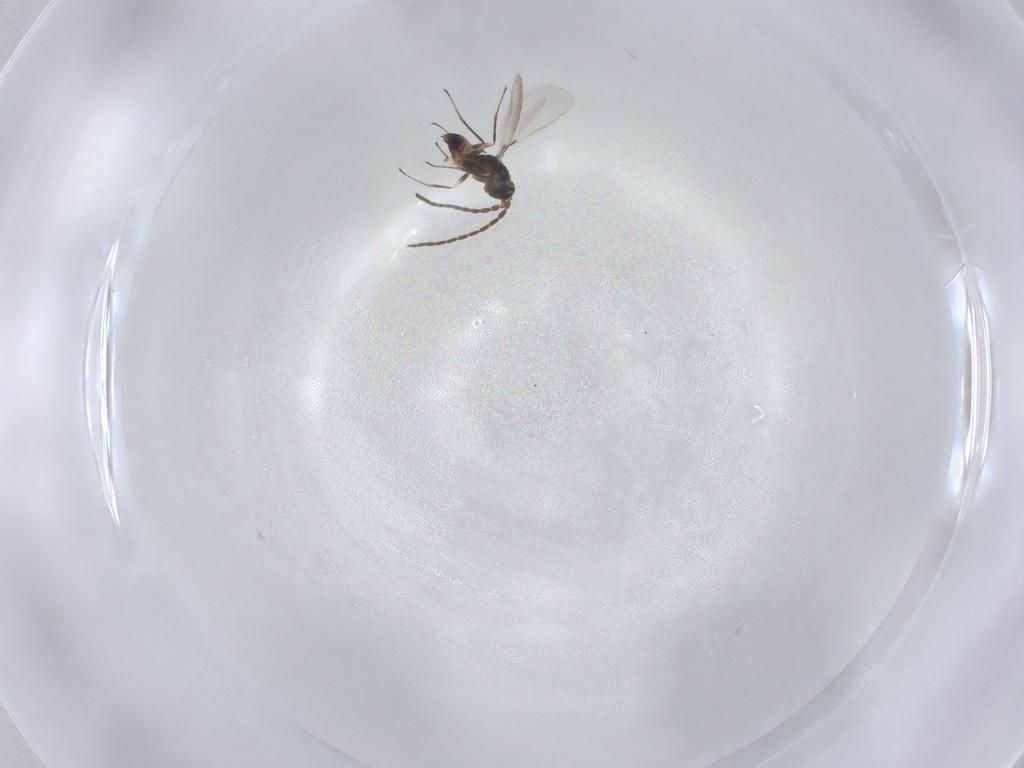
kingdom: Animalia
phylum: Arthropoda
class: Insecta
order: Hymenoptera
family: Mymaridae
